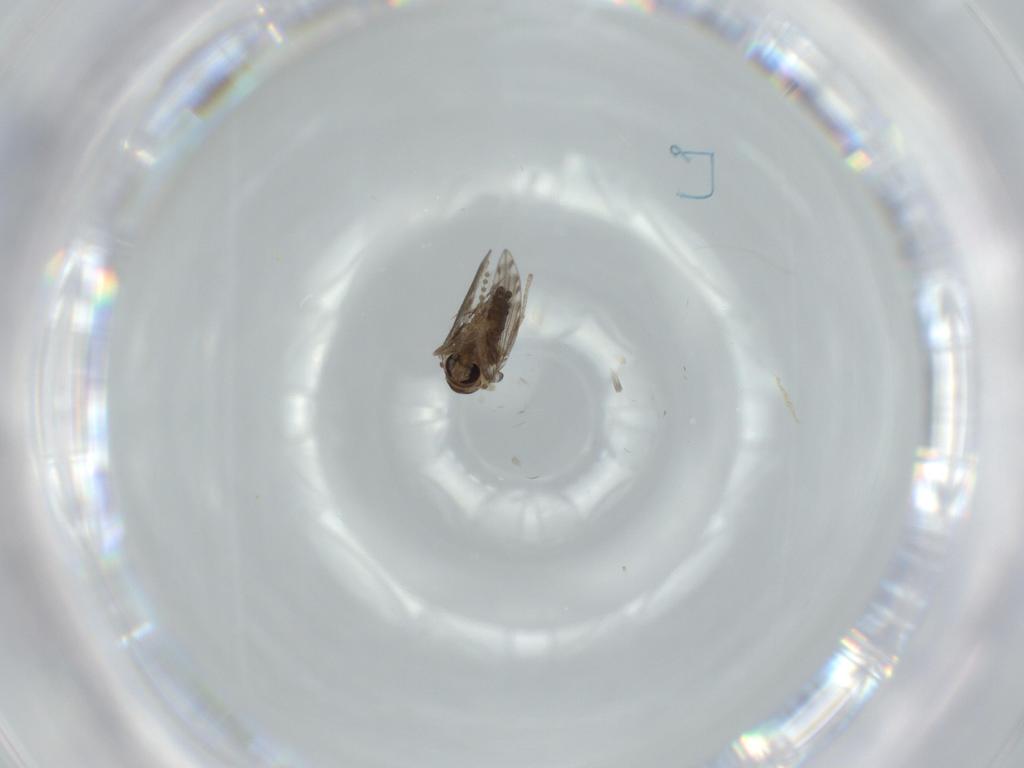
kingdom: Animalia
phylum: Arthropoda
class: Insecta
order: Diptera
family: Psychodidae
